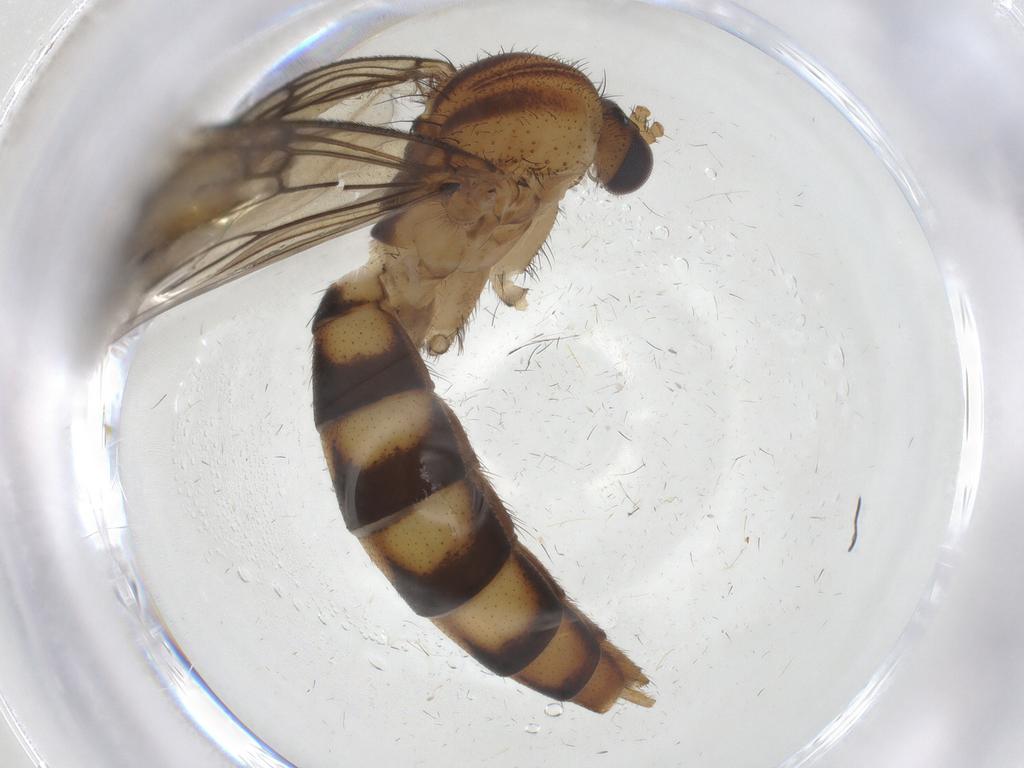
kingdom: Animalia
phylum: Arthropoda
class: Insecta
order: Diptera
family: Mycetophilidae
